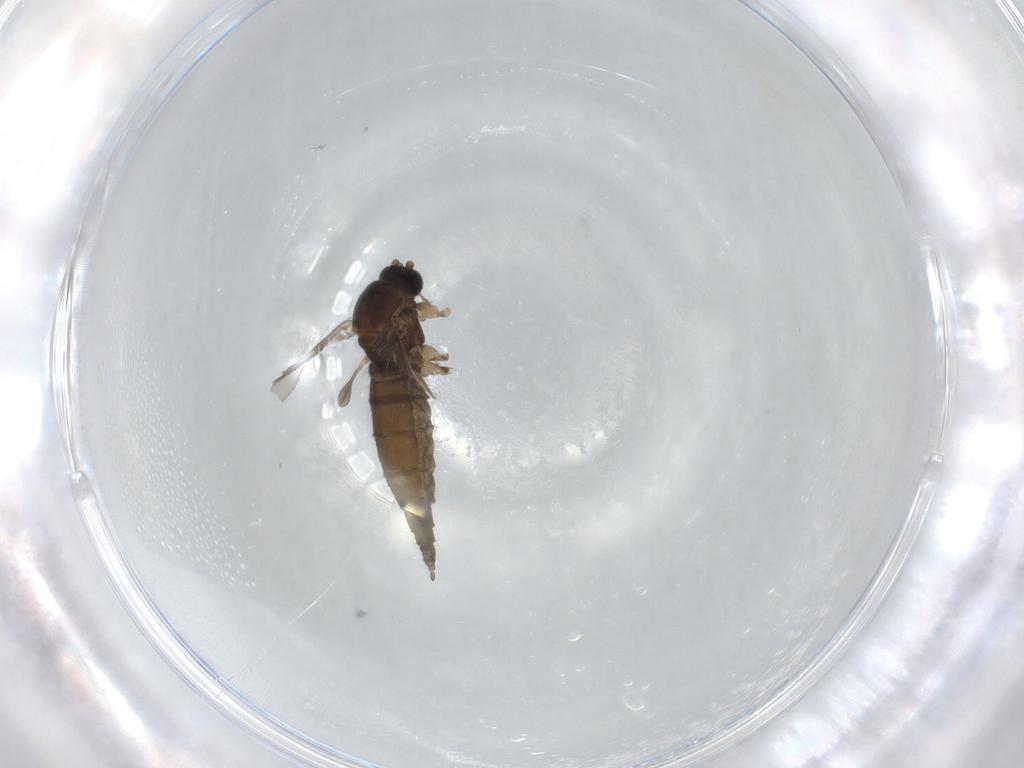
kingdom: Animalia
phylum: Arthropoda
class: Insecta
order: Diptera
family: Sciaridae
